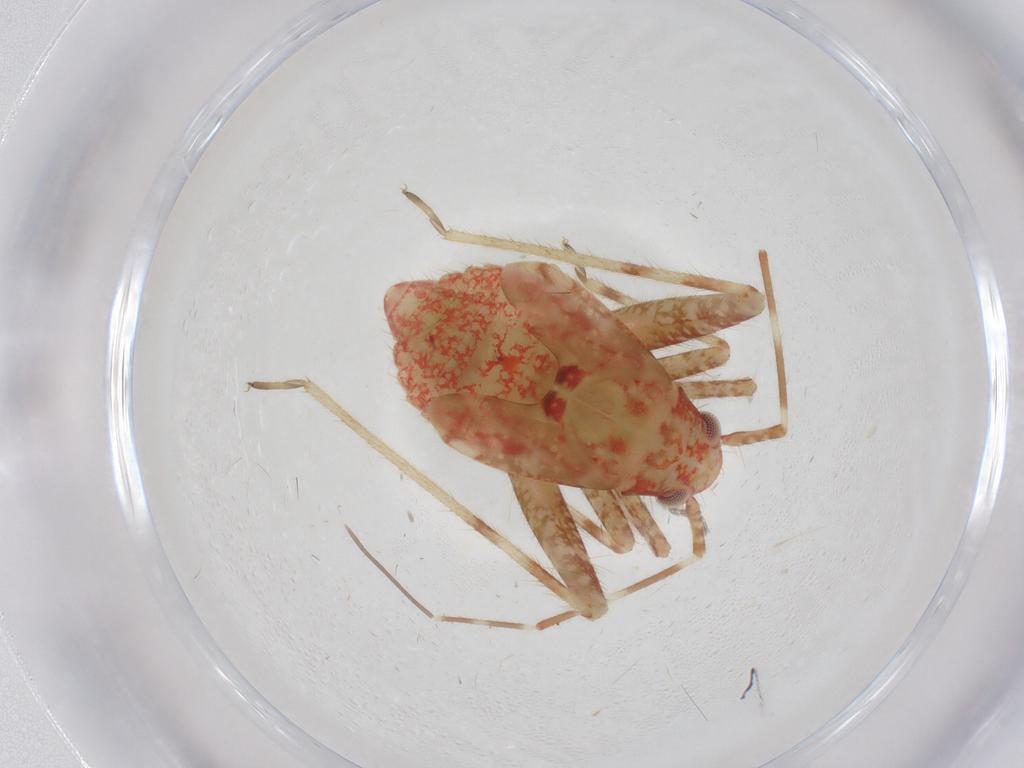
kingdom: Animalia
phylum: Arthropoda
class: Insecta
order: Hemiptera
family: Miridae
